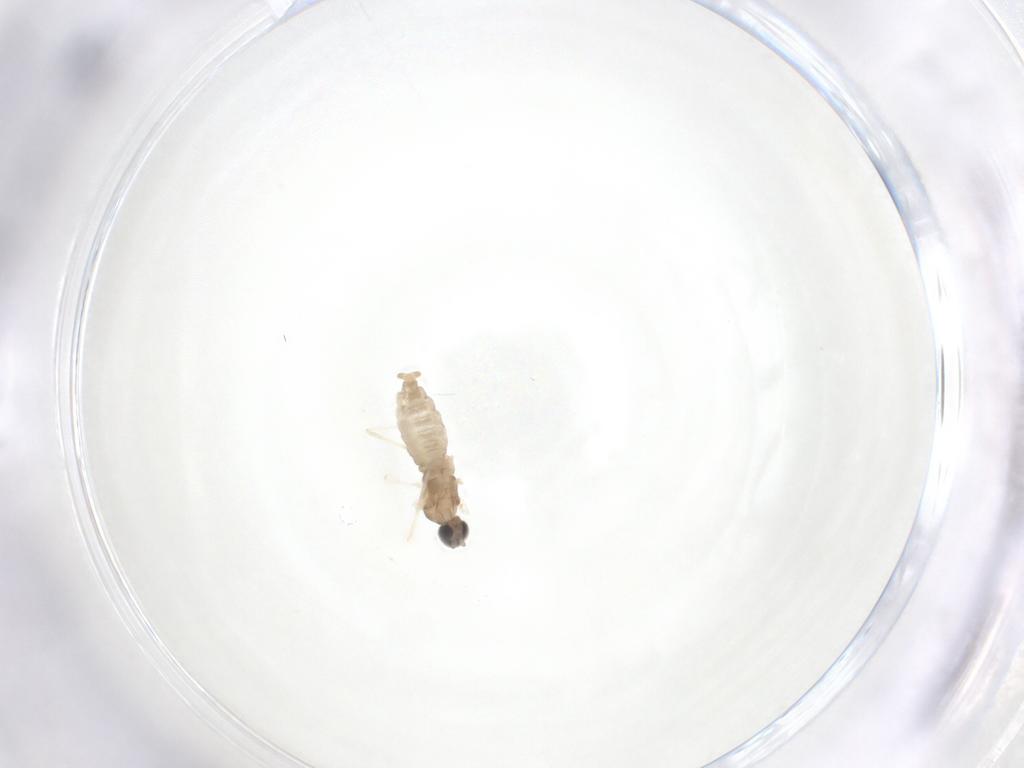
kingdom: Animalia
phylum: Arthropoda
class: Insecta
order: Diptera
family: Cecidomyiidae
